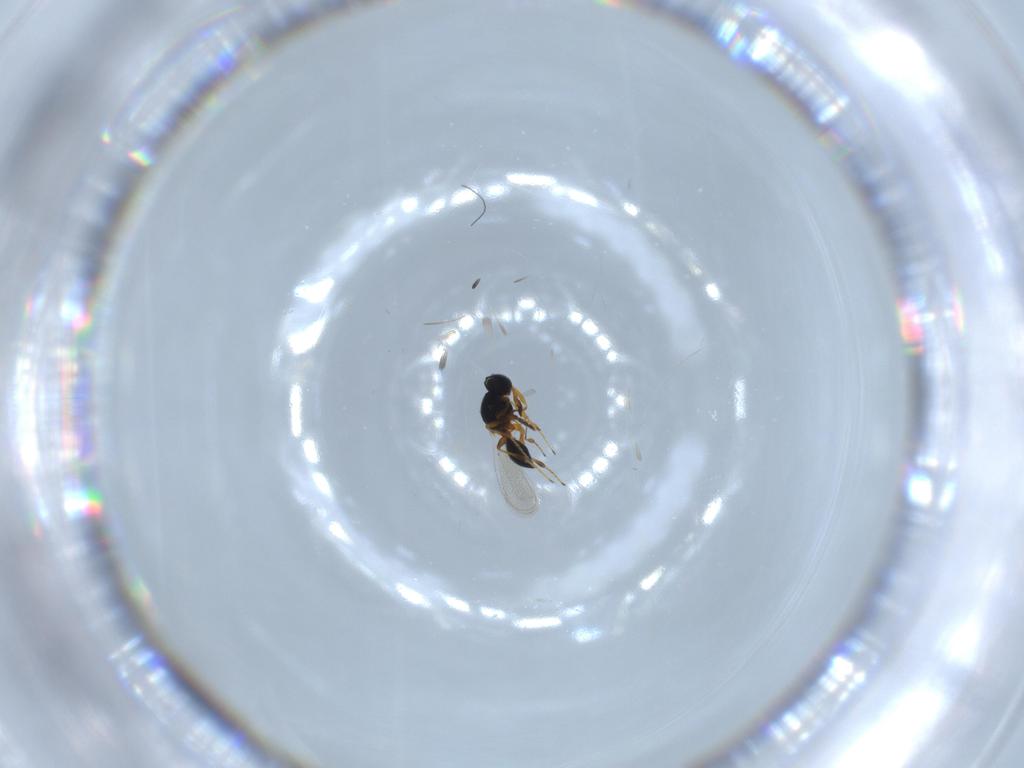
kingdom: Animalia
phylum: Arthropoda
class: Insecta
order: Hymenoptera
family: Platygastridae
